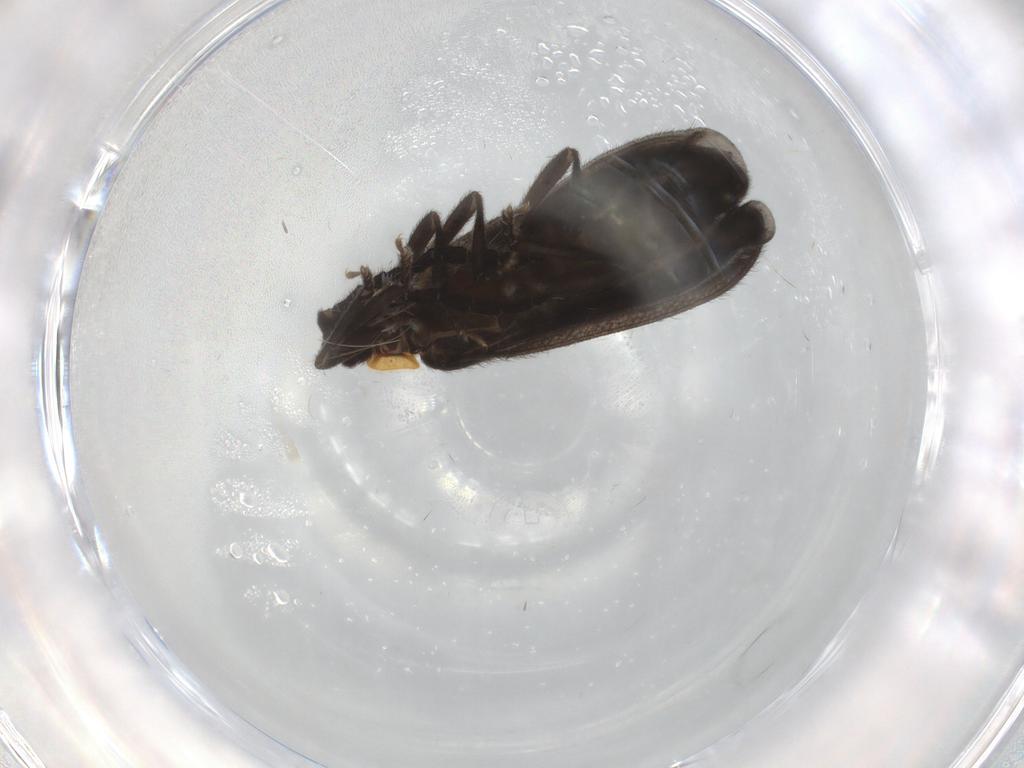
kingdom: Animalia
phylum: Arthropoda
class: Insecta
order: Coleoptera
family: Lycidae
